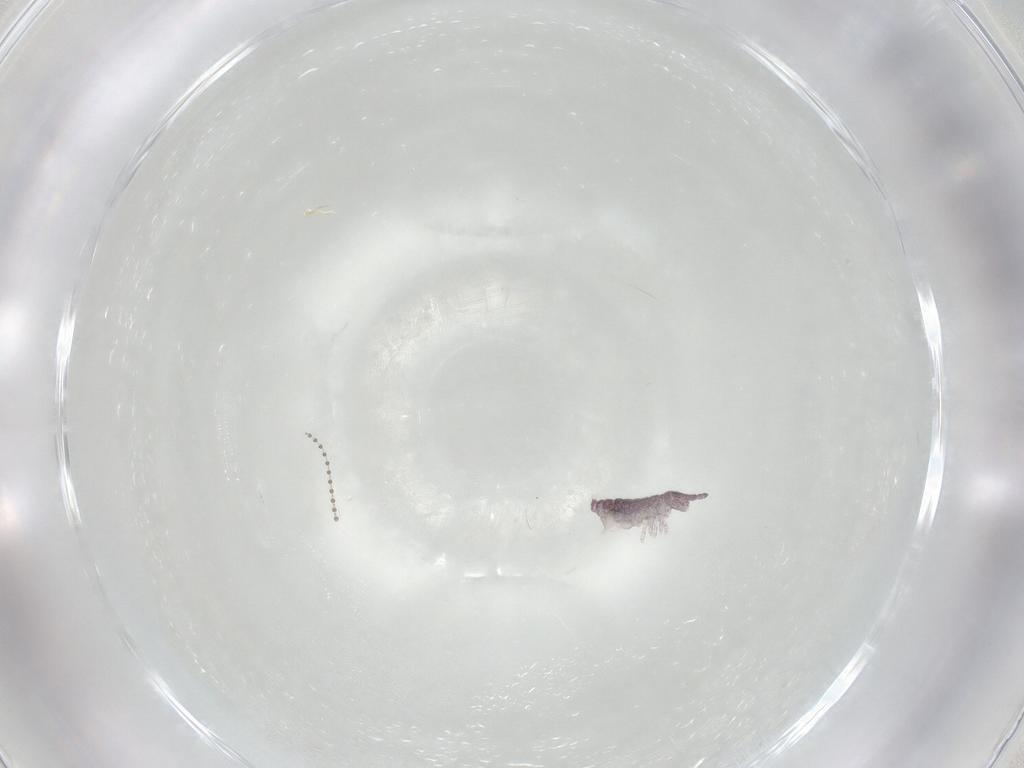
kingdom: Animalia
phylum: Arthropoda
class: Collembola
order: Poduromorpha
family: Hypogastruridae
